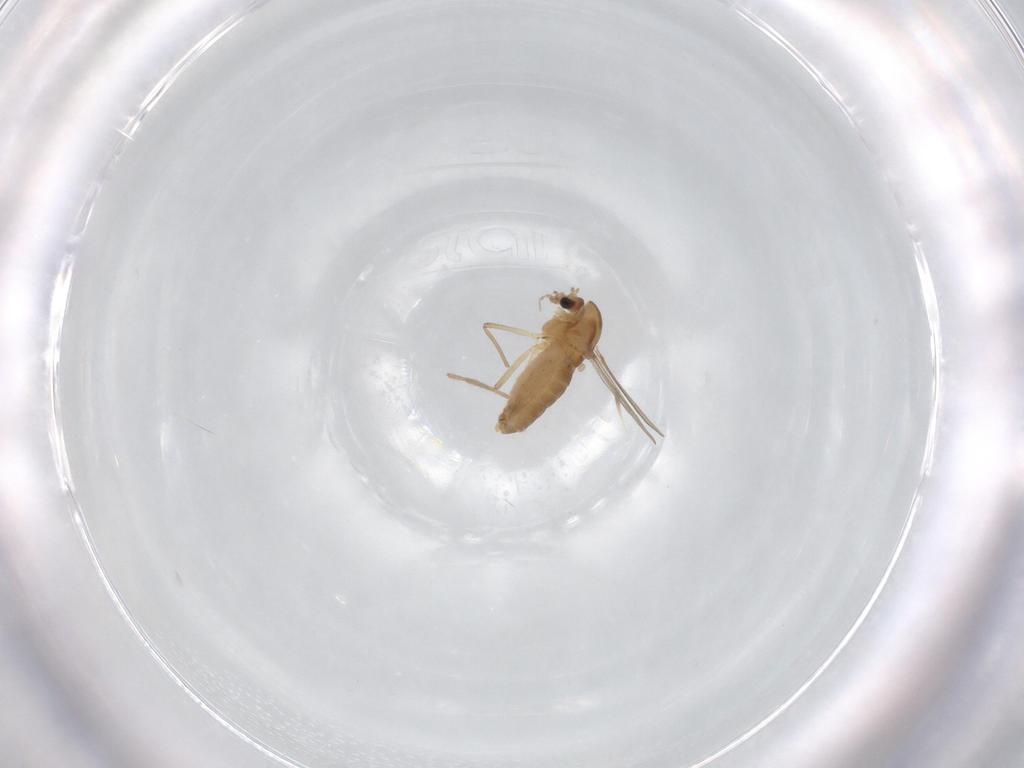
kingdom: Animalia
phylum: Arthropoda
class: Insecta
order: Diptera
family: Chironomidae
